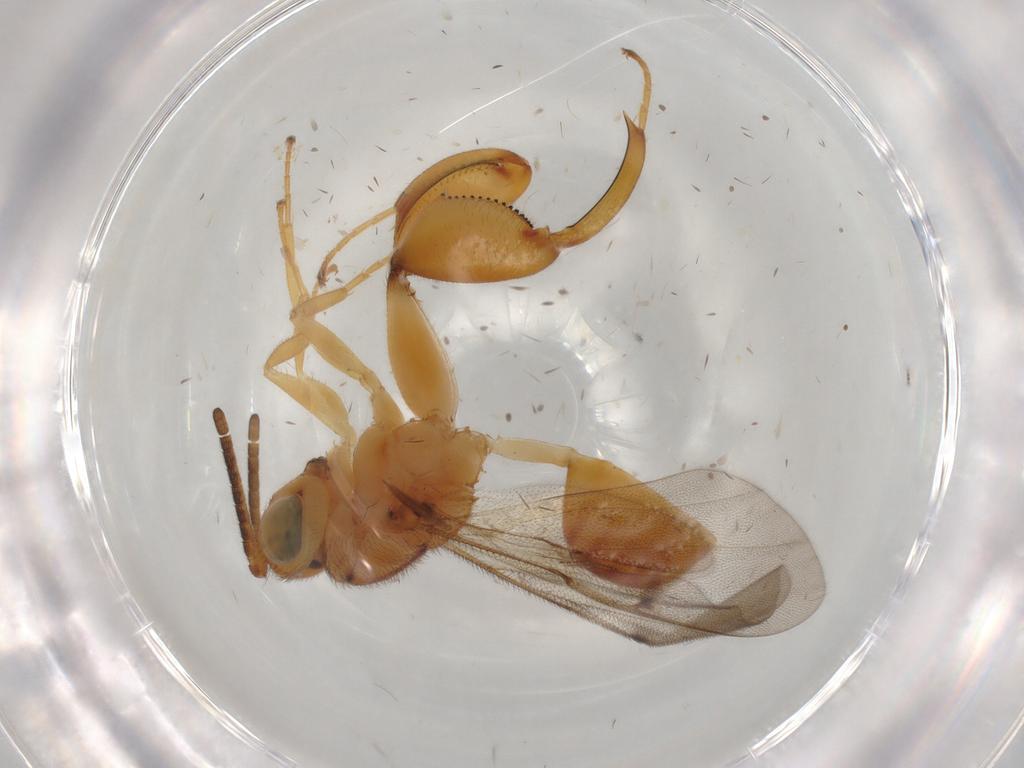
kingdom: Animalia
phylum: Arthropoda
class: Insecta
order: Hymenoptera
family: Chalcididae
